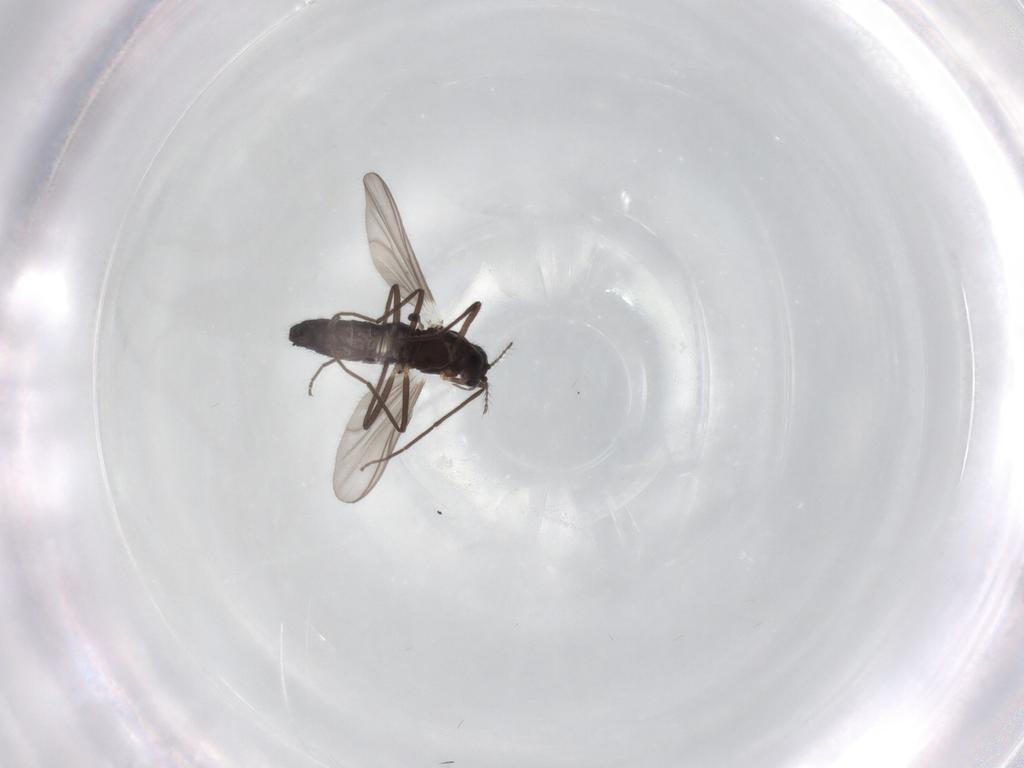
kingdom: Animalia
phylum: Arthropoda
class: Insecta
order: Diptera
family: Chironomidae
